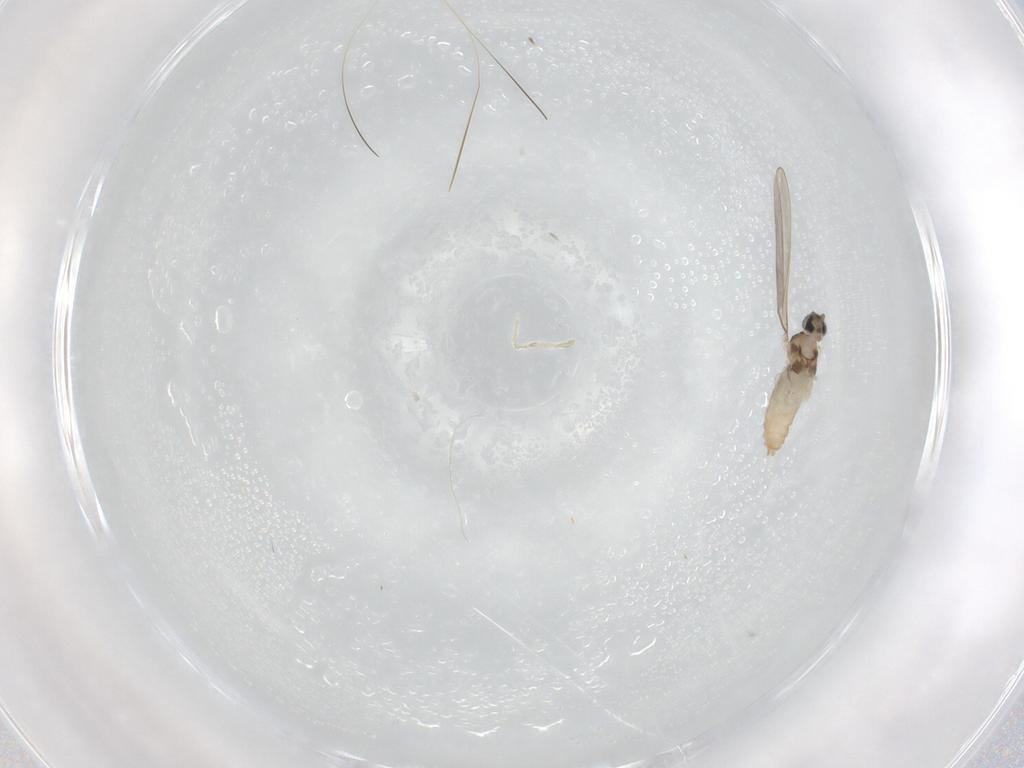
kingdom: Animalia
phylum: Arthropoda
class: Insecta
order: Diptera
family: Cecidomyiidae
